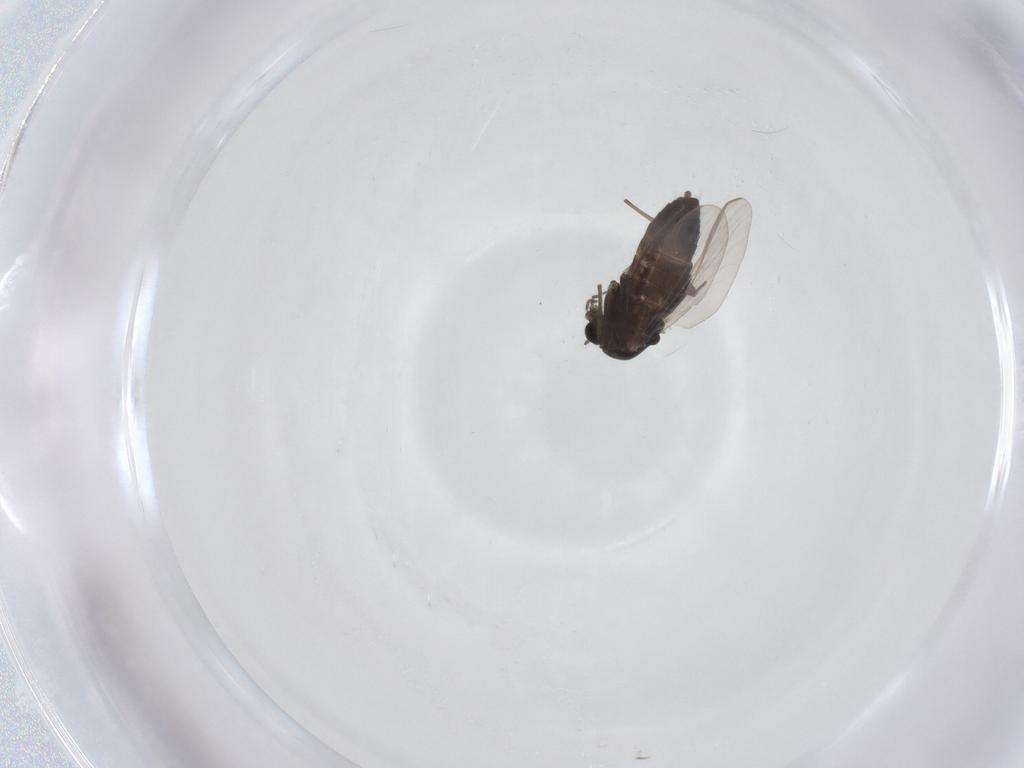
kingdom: Animalia
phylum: Arthropoda
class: Insecta
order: Diptera
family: Chironomidae
